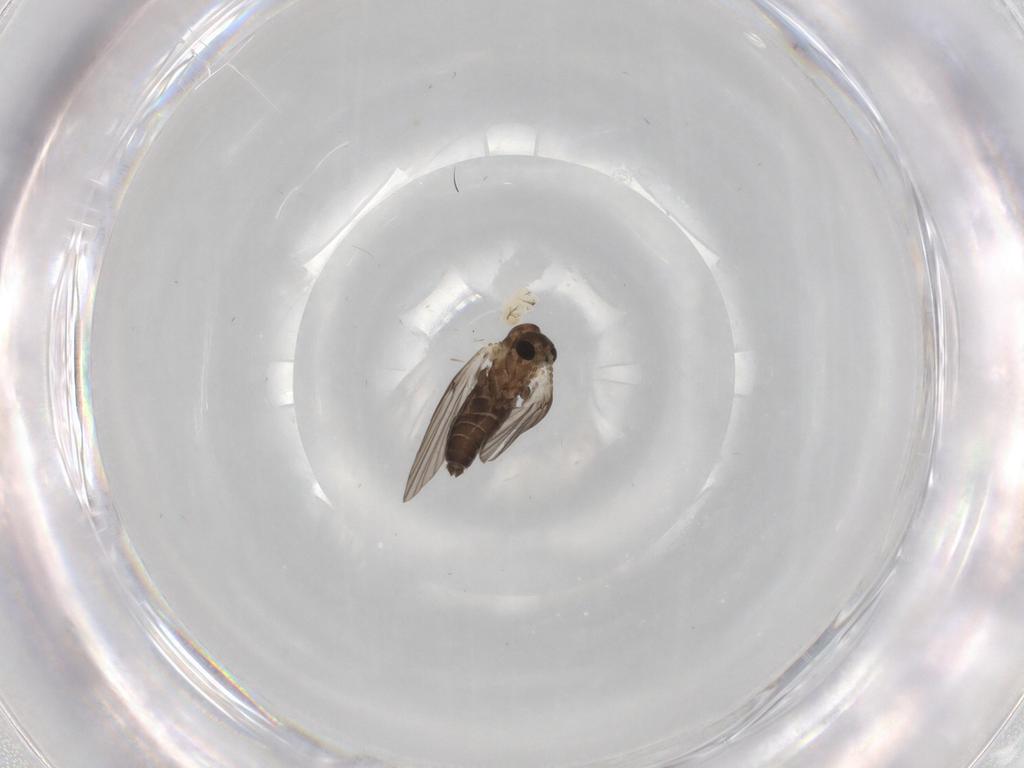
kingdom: Animalia
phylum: Arthropoda
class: Insecta
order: Diptera
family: Psychodidae
